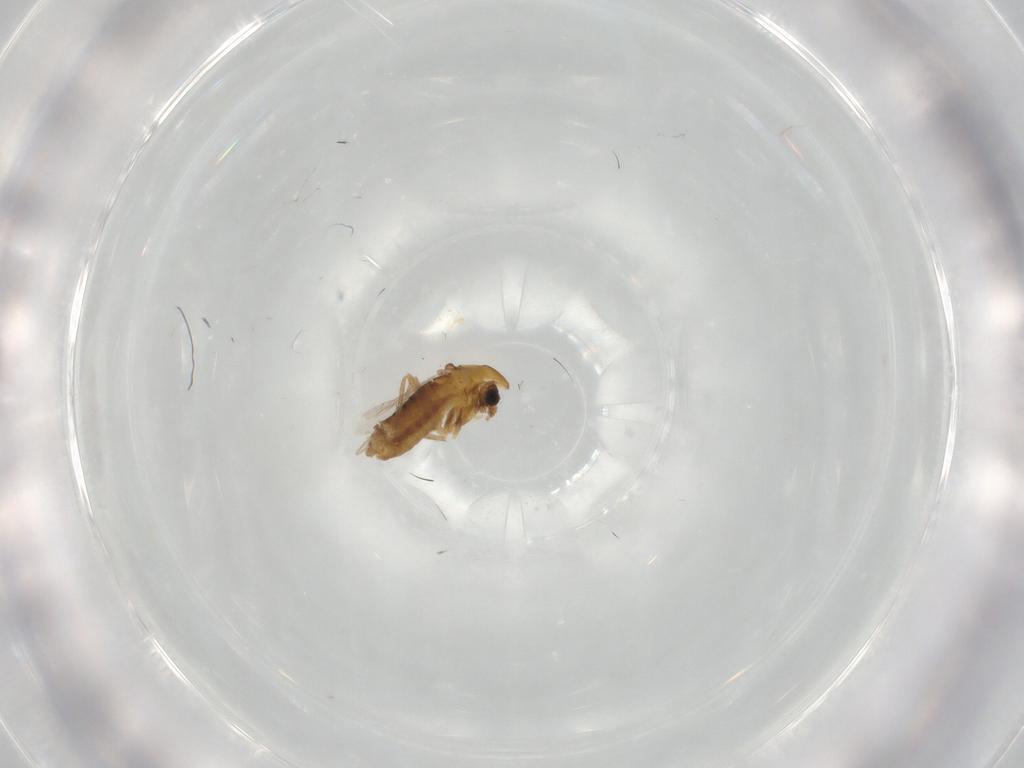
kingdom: Animalia
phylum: Arthropoda
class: Insecta
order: Diptera
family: Chironomidae
